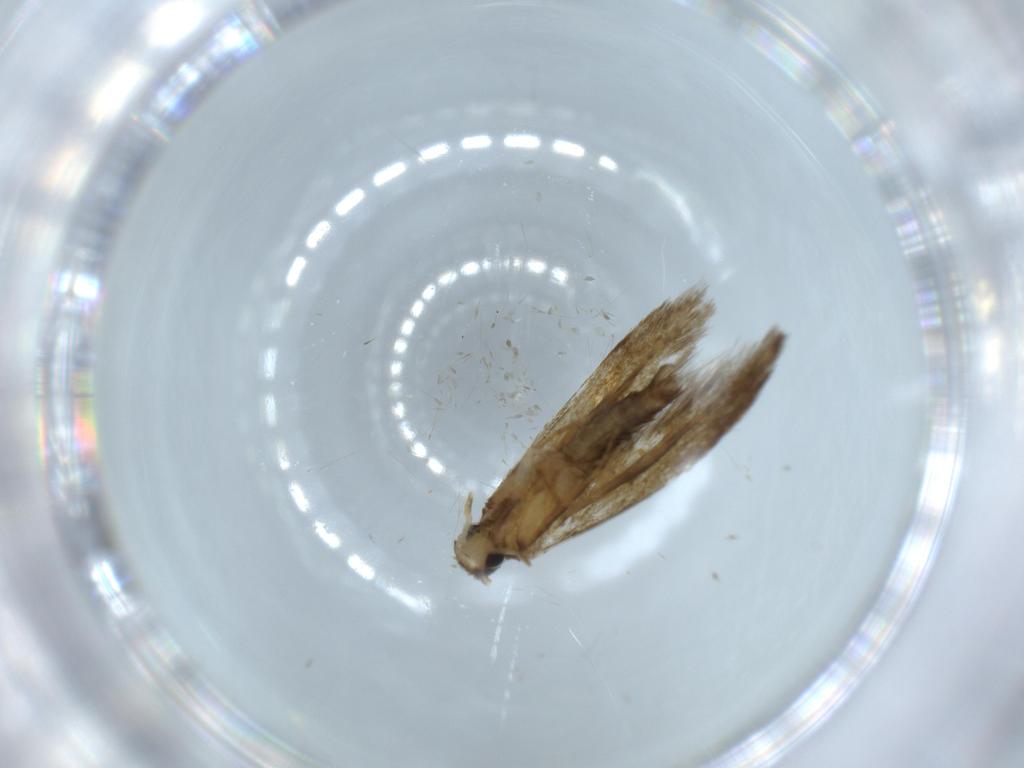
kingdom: Animalia
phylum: Arthropoda
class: Insecta
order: Lepidoptera
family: Tineidae
